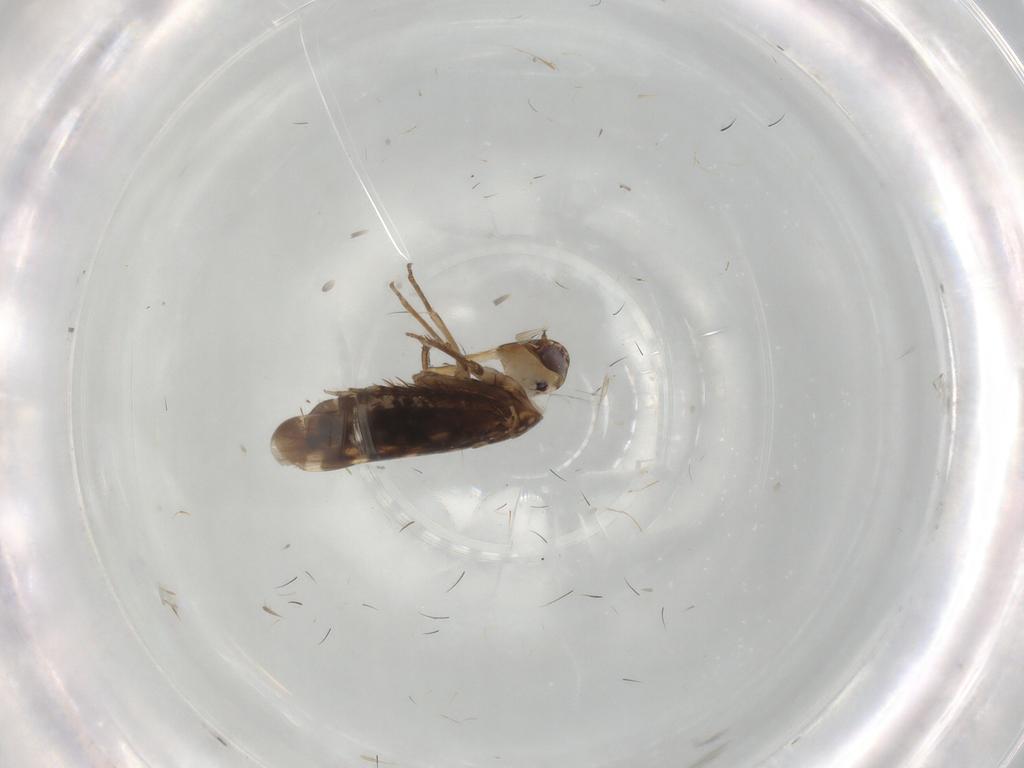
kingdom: Animalia
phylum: Arthropoda
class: Insecta
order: Hemiptera
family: Cicadellidae
